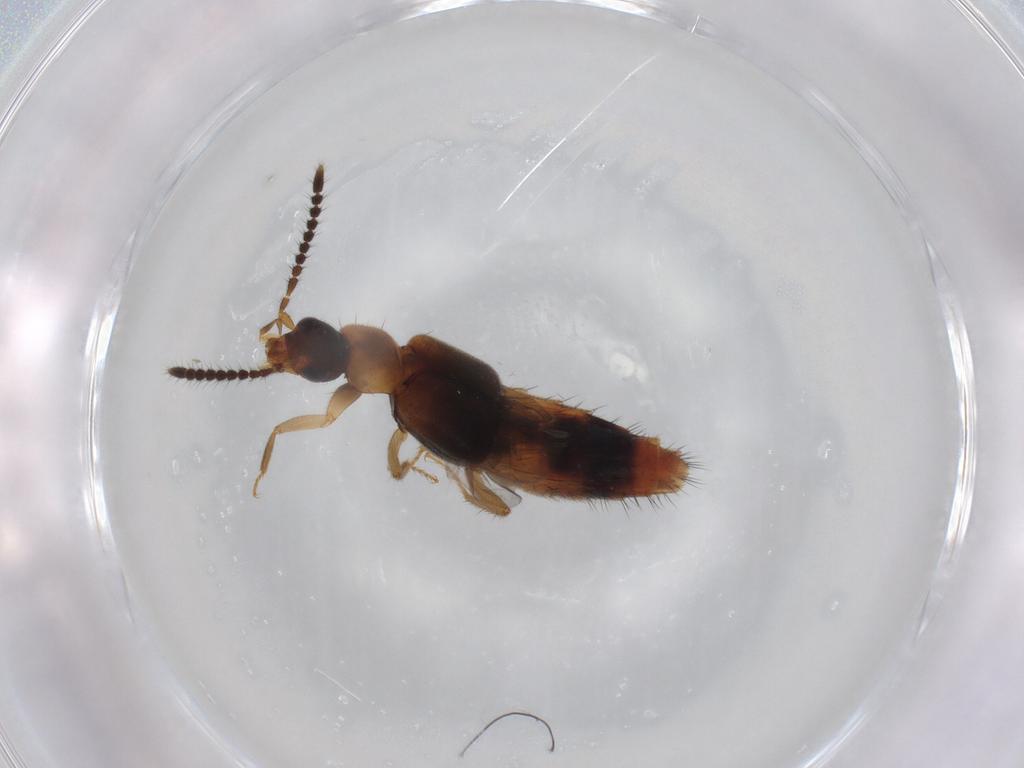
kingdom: Animalia
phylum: Arthropoda
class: Insecta
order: Coleoptera
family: Staphylinidae
